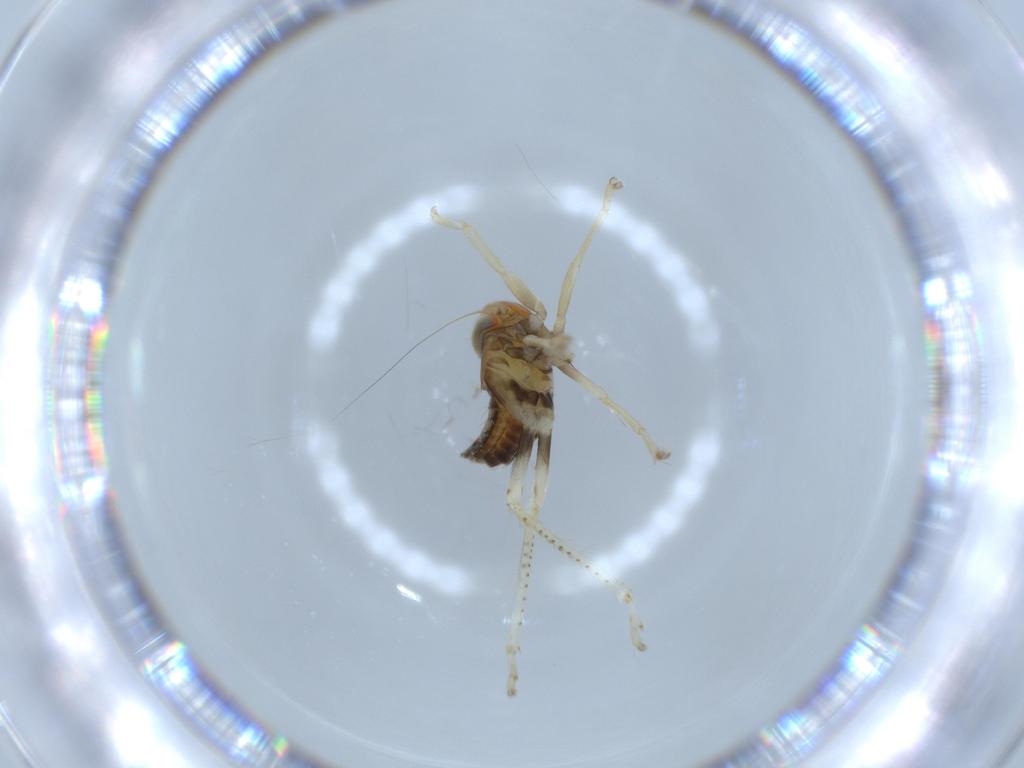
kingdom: Animalia
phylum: Arthropoda
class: Insecta
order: Hemiptera
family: Cicadellidae
